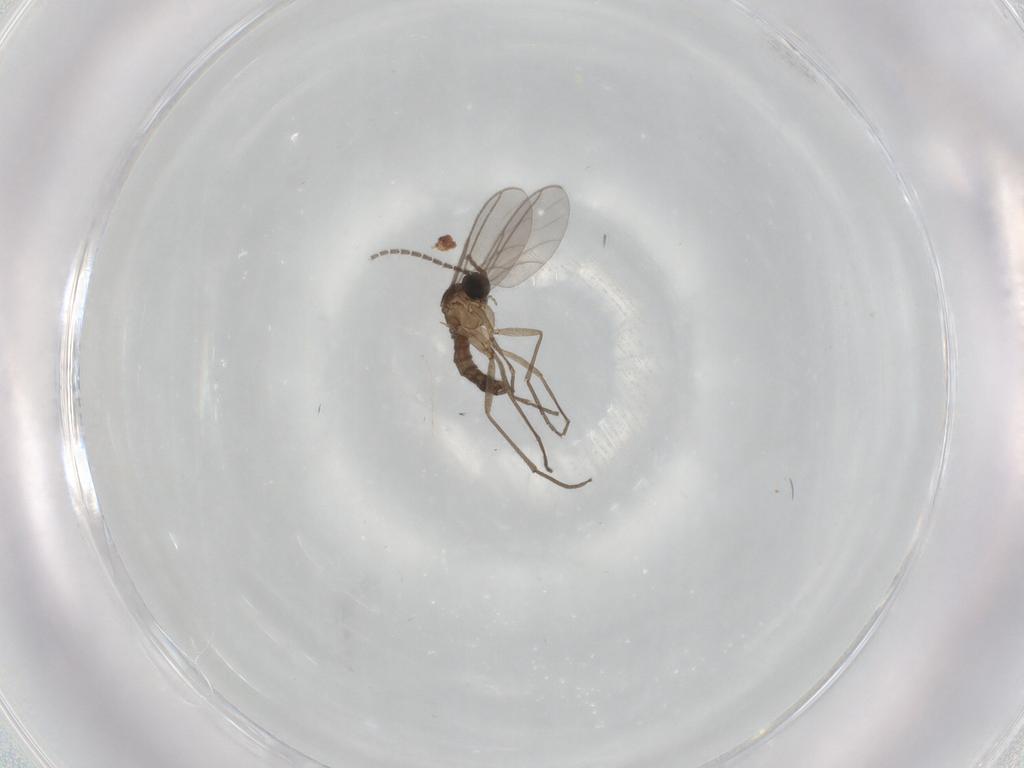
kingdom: Animalia
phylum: Arthropoda
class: Insecta
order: Diptera
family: Sciaridae
